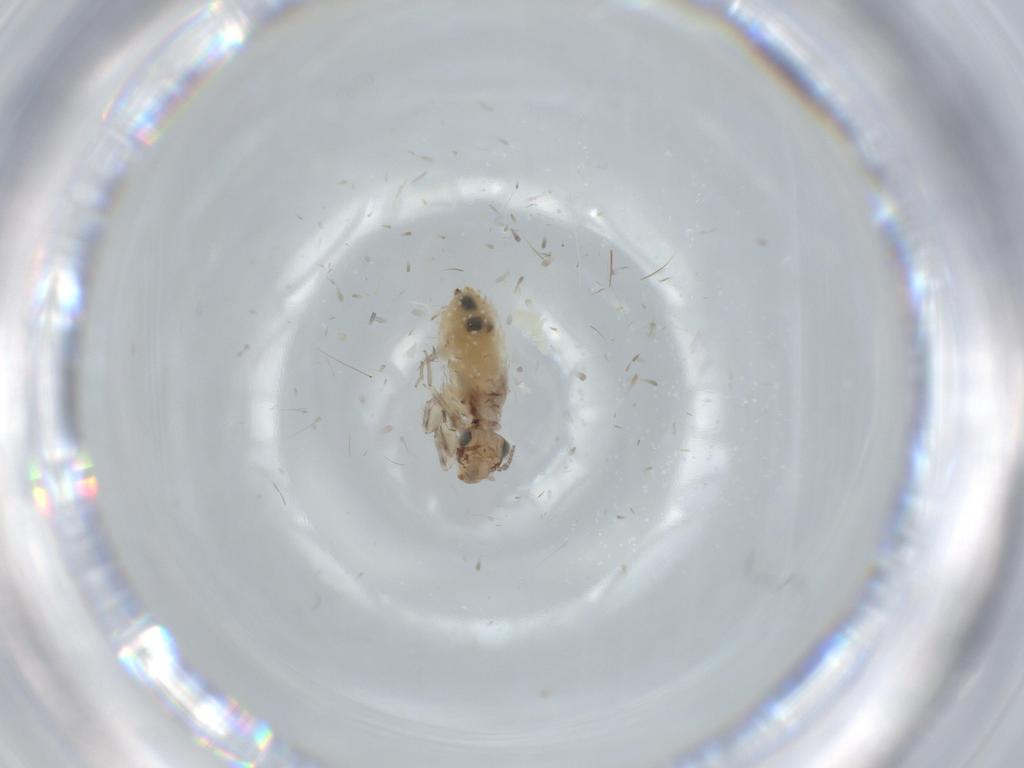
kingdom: Animalia
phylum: Arthropoda
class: Insecta
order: Psocodea
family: Lepidopsocidae
